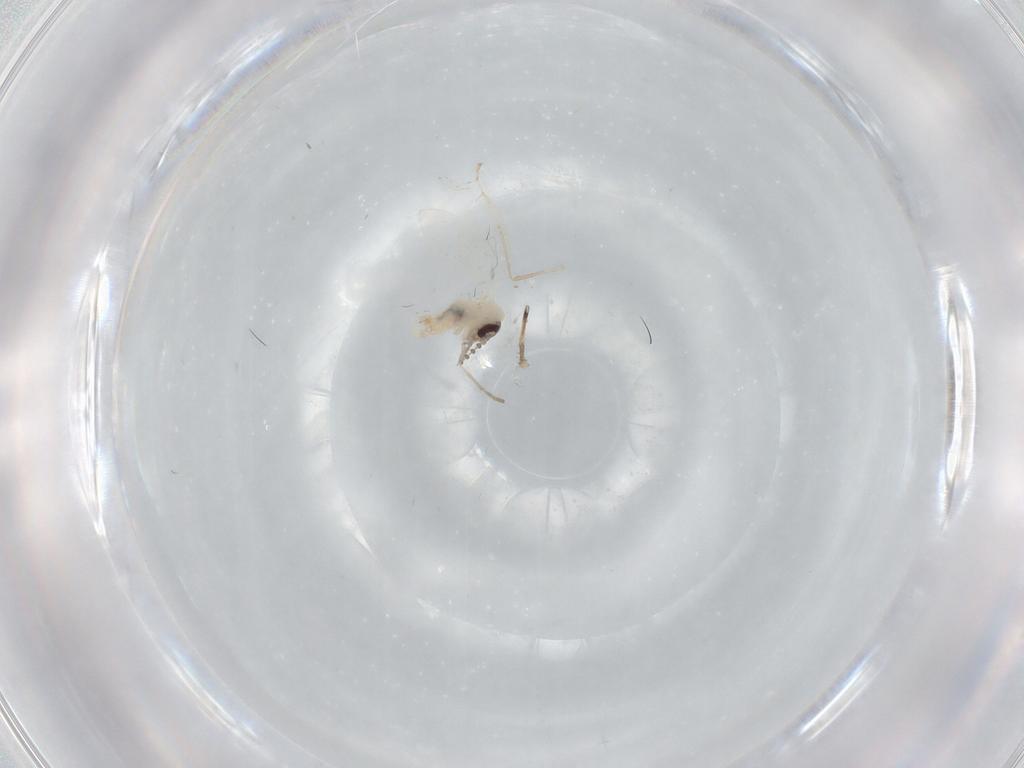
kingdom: Animalia
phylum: Arthropoda
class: Insecta
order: Diptera
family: Psychodidae
